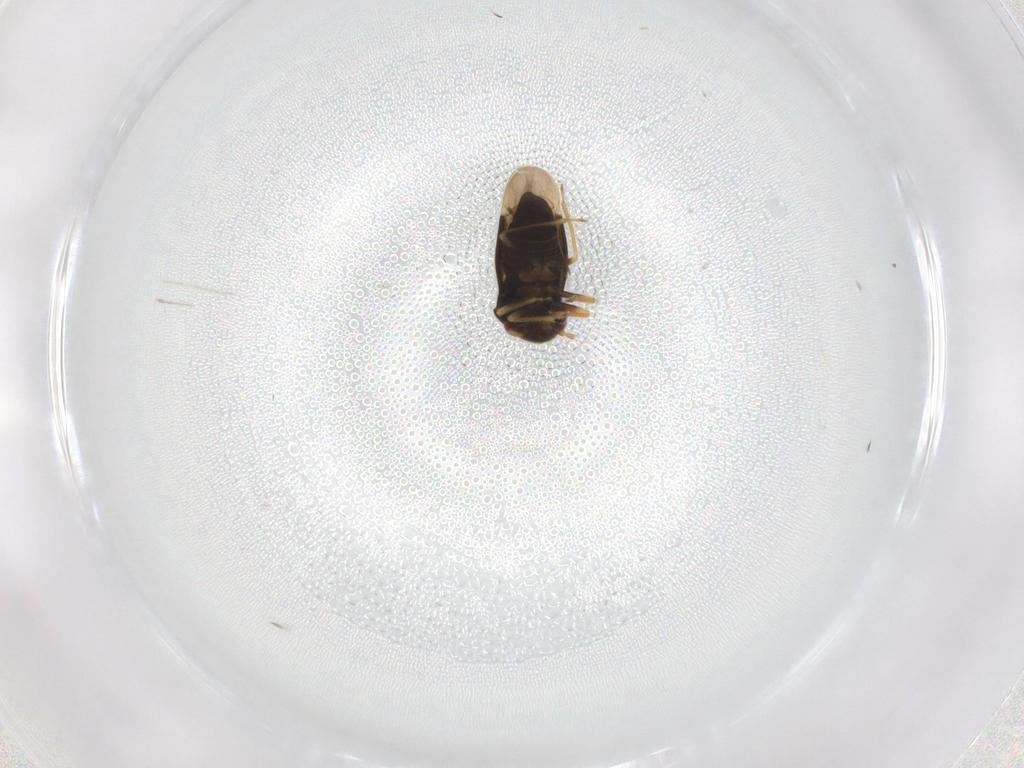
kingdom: Animalia
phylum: Arthropoda
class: Insecta
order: Hemiptera
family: Schizopteridae
